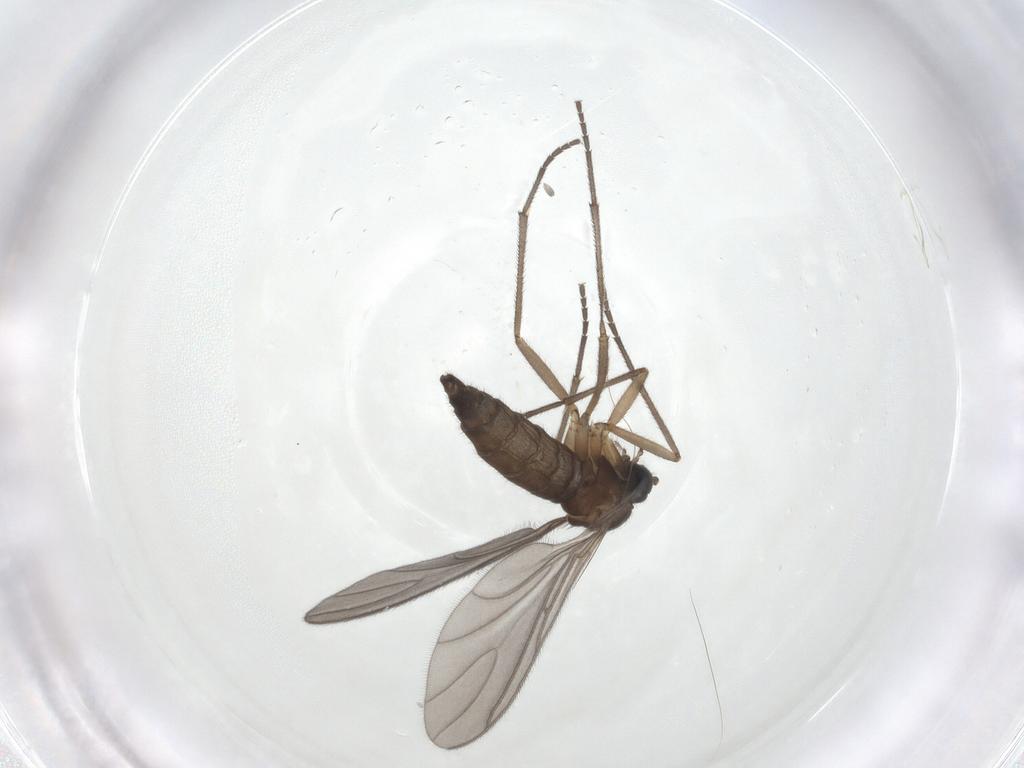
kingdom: Animalia
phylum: Arthropoda
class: Insecta
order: Diptera
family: Sciaridae
